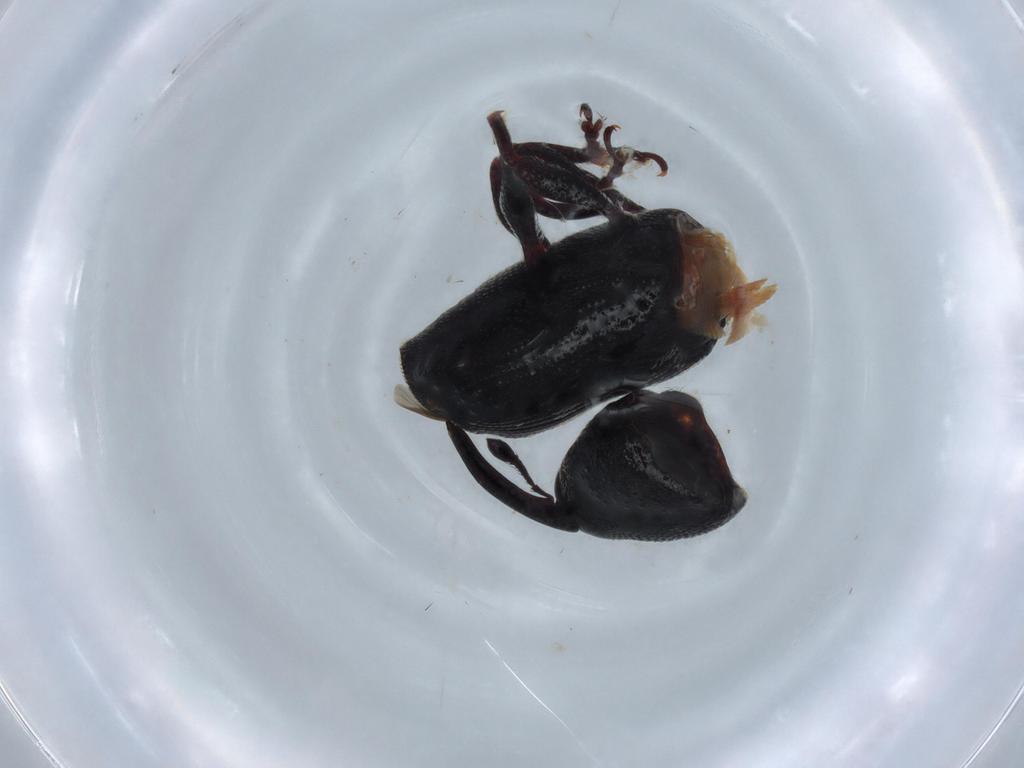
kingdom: Animalia
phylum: Arthropoda
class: Insecta
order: Coleoptera
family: Curculionidae
